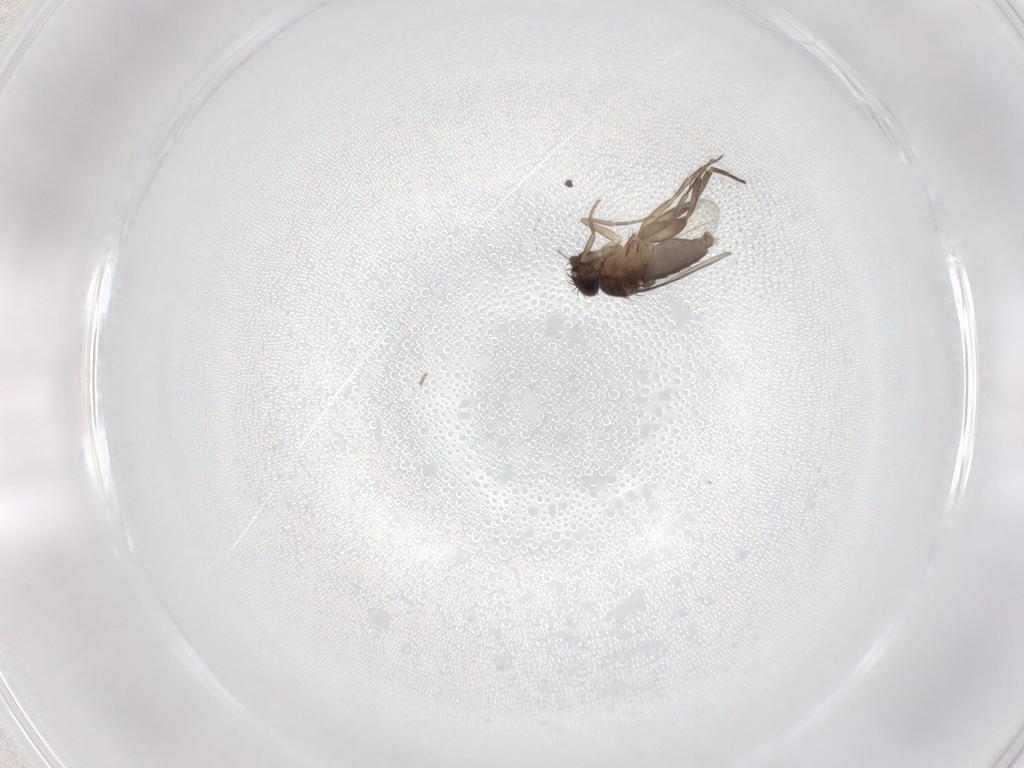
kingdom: Animalia
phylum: Arthropoda
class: Insecta
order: Diptera
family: Phoridae
